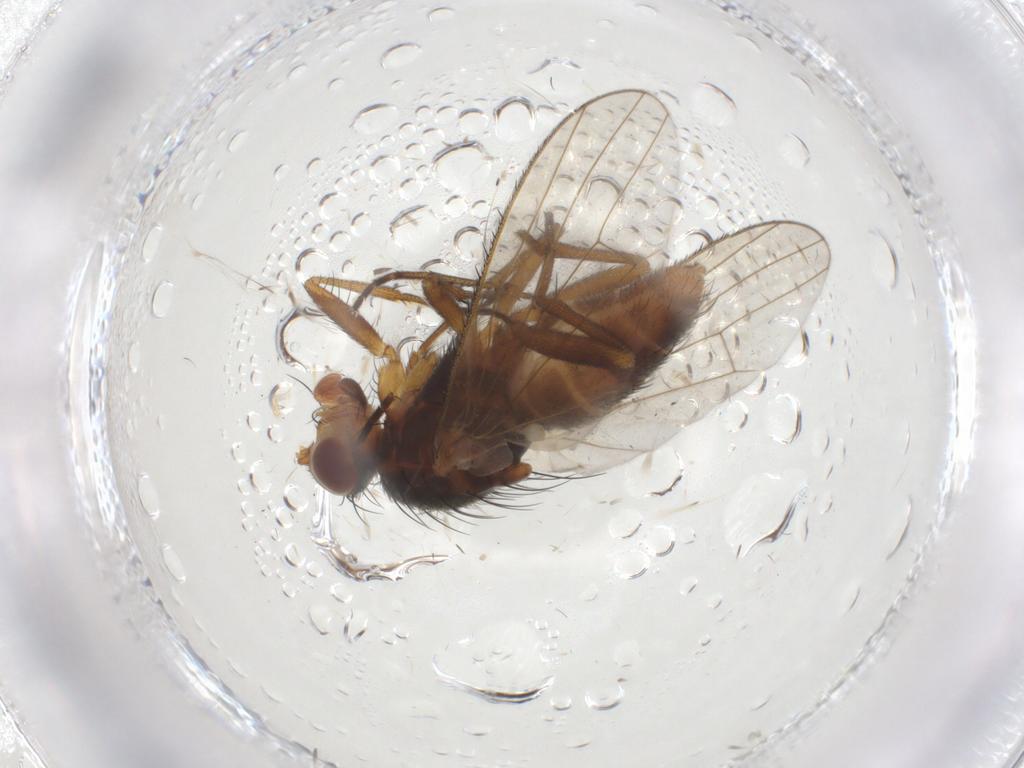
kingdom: Animalia
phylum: Arthropoda
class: Insecta
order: Diptera
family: Heleomyzidae
